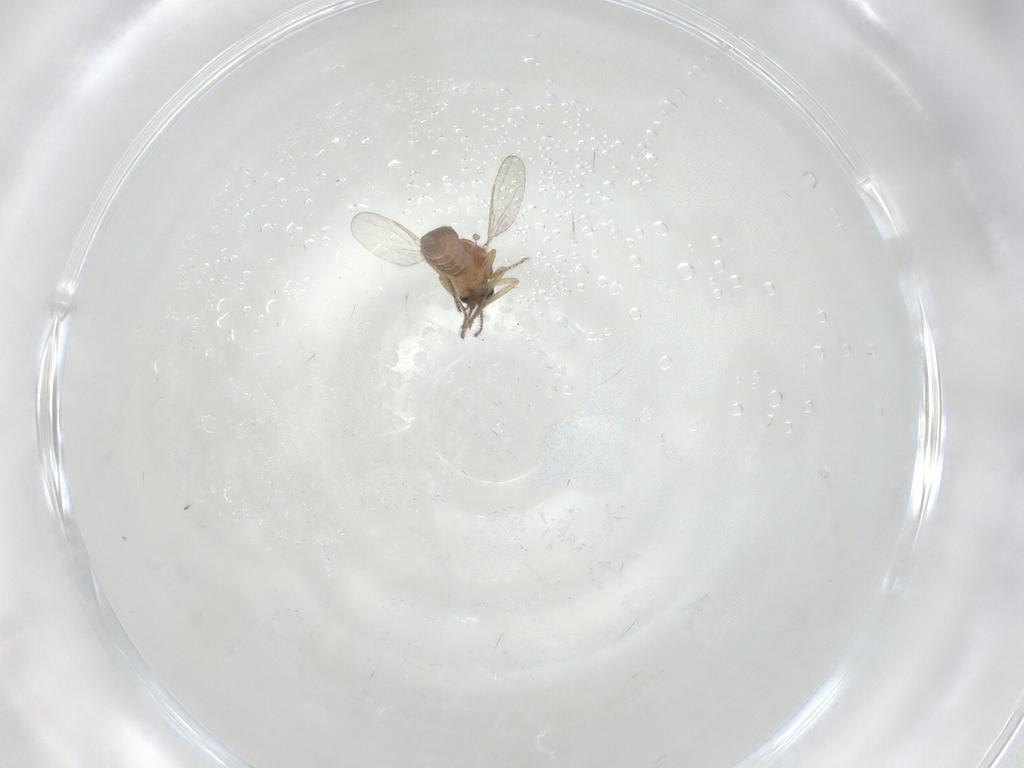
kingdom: Animalia
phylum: Arthropoda
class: Insecta
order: Diptera
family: Ceratopogonidae
